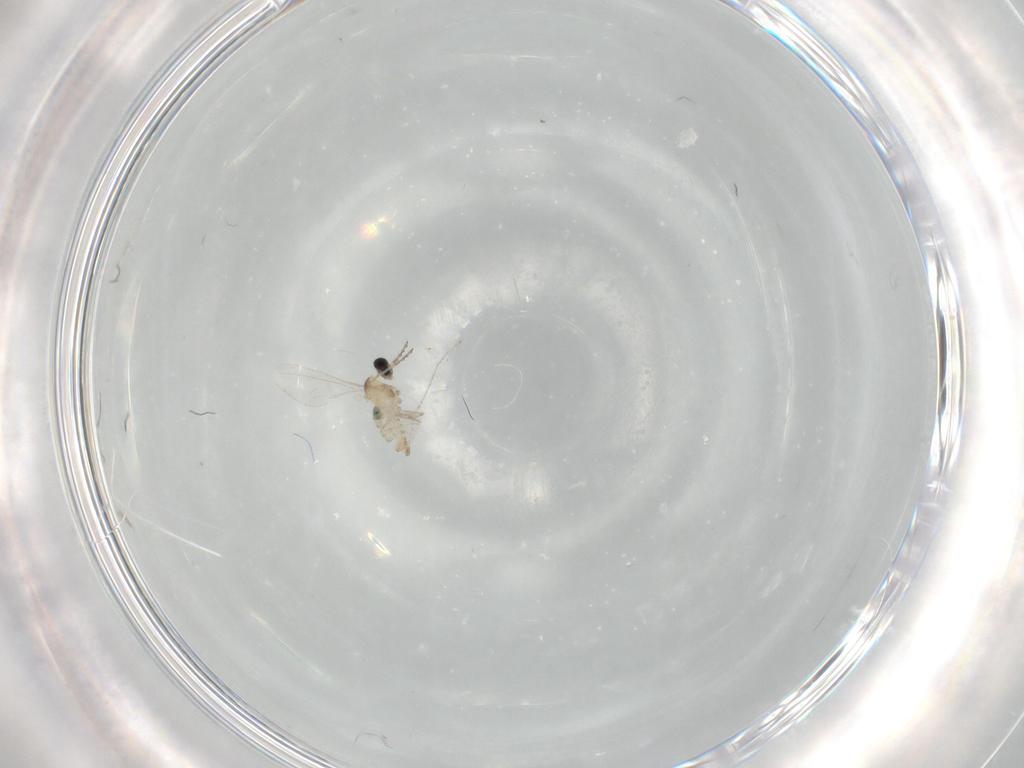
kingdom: Animalia
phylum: Arthropoda
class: Insecta
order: Diptera
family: Cecidomyiidae
